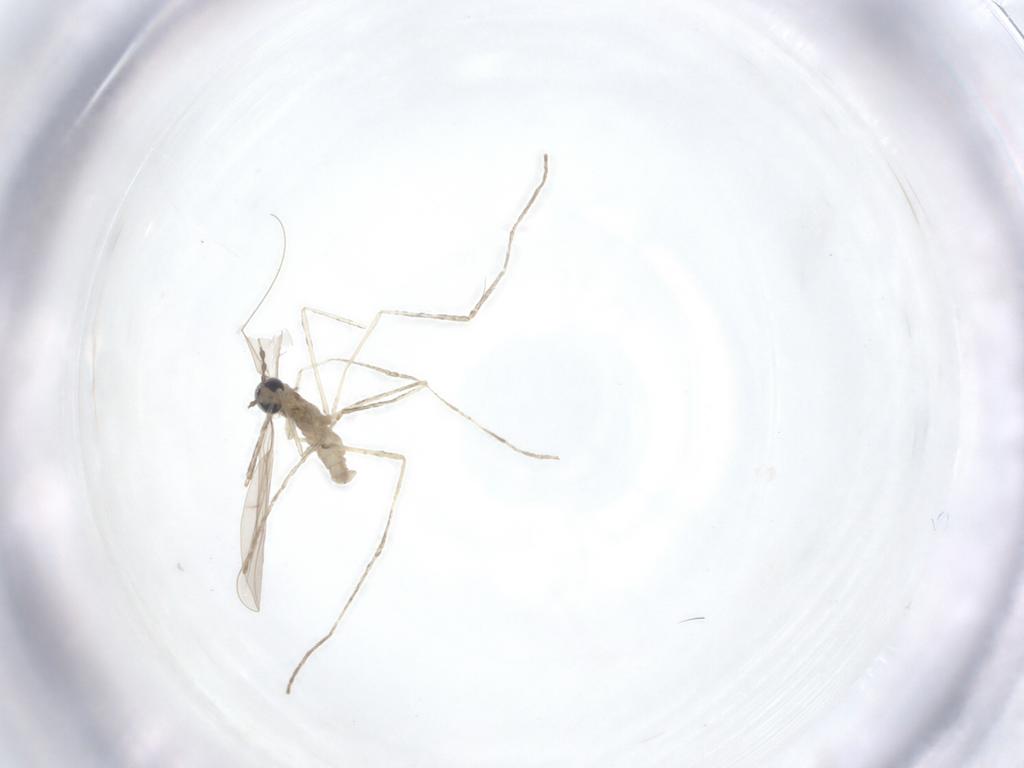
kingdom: Animalia
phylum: Arthropoda
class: Insecta
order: Diptera
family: Cecidomyiidae
